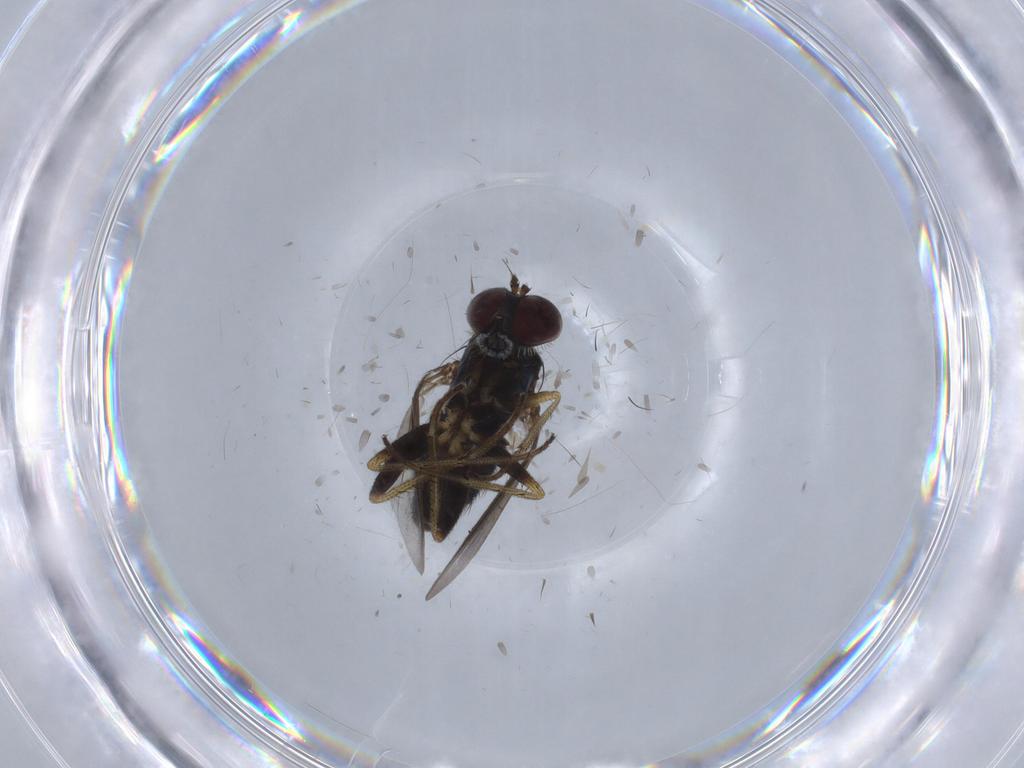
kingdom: Animalia
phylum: Arthropoda
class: Insecta
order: Diptera
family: Dolichopodidae
